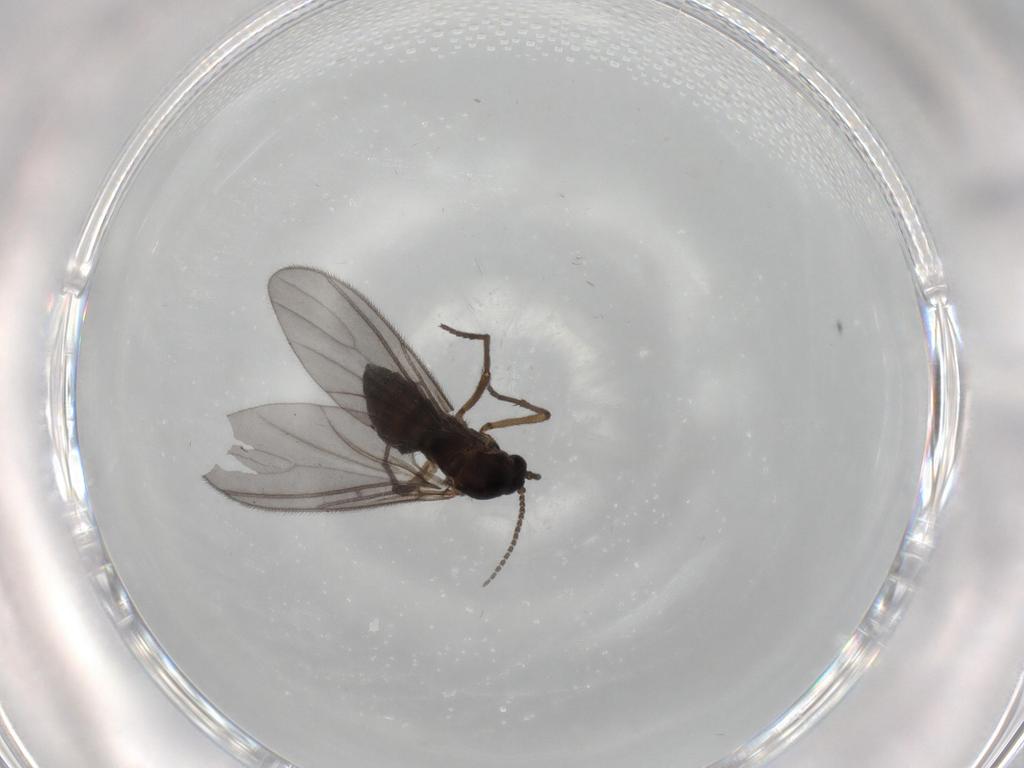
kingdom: Animalia
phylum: Arthropoda
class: Insecta
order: Diptera
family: Sciaridae
